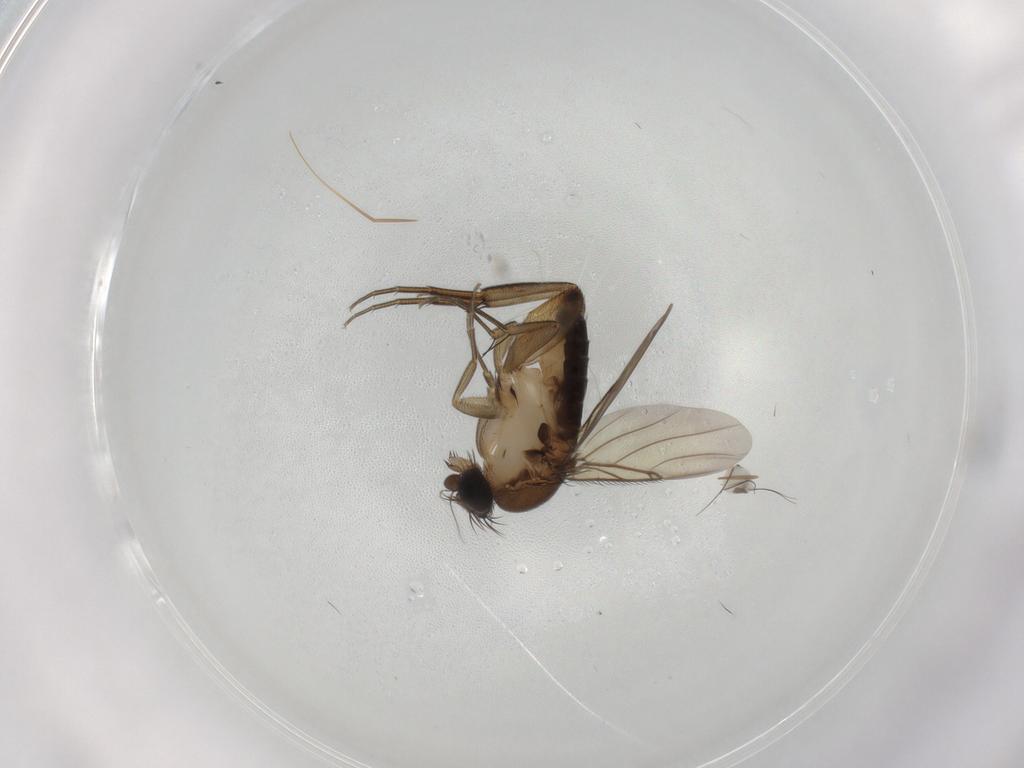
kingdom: Animalia
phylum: Arthropoda
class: Insecta
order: Diptera
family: Phoridae
